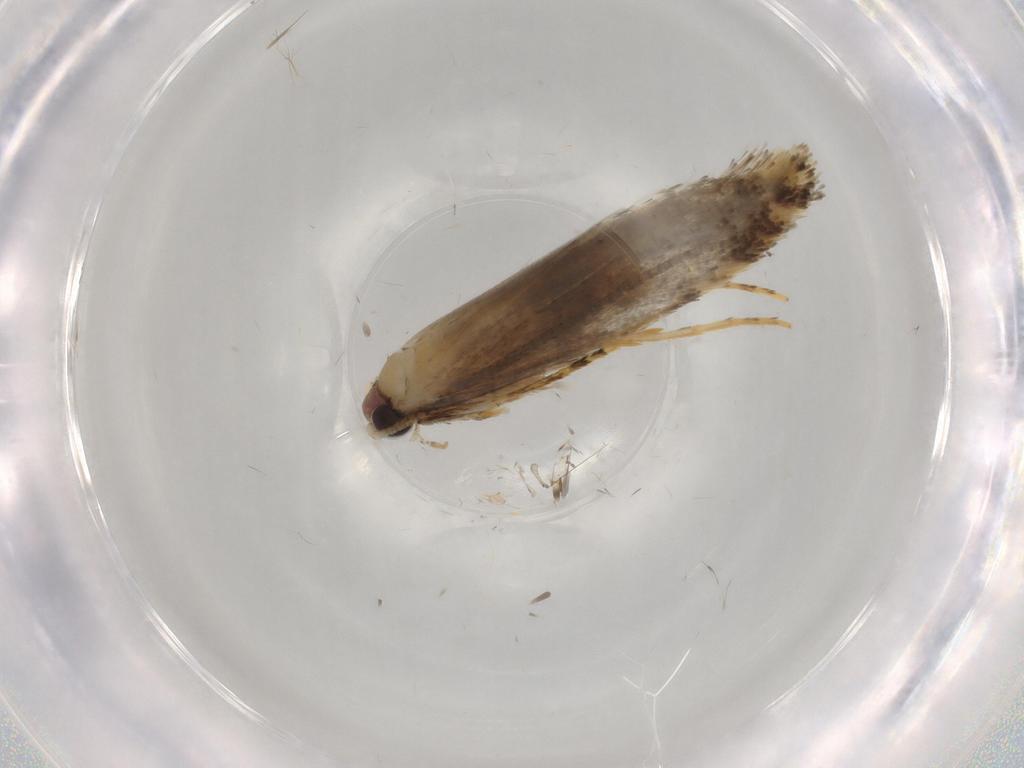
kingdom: Animalia
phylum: Arthropoda
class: Insecta
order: Lepidoptera
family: Tineidae
